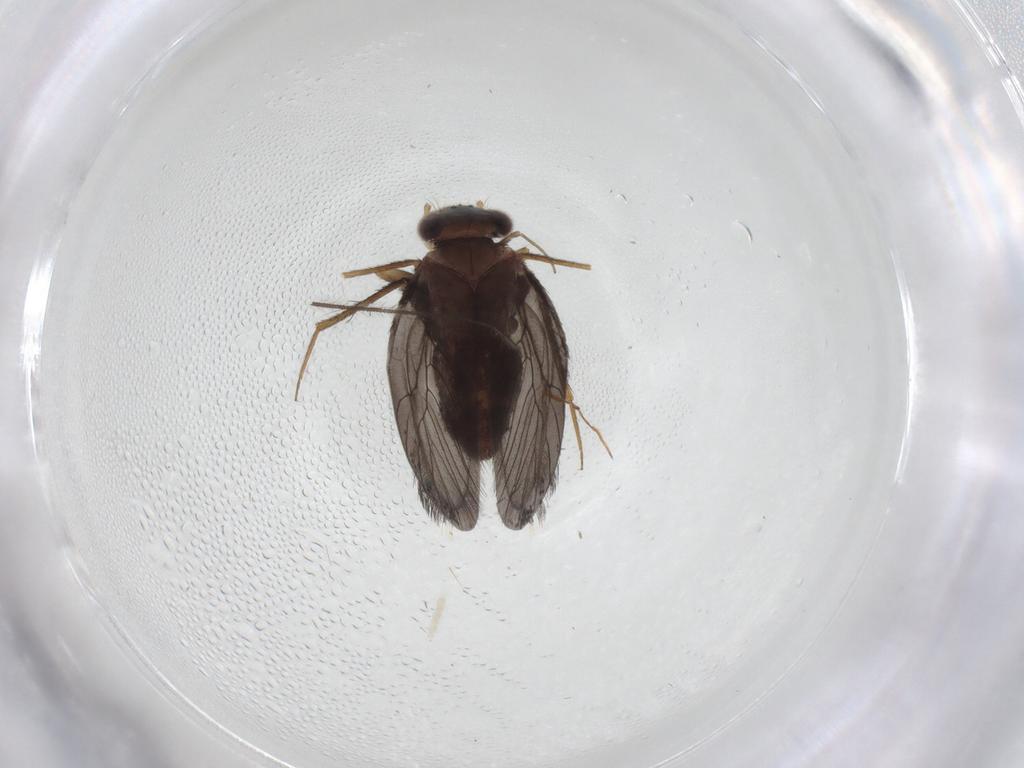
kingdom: Animalia
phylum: Arthropoda
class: Insecta
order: Psocodea
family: Lepidopsocidae
